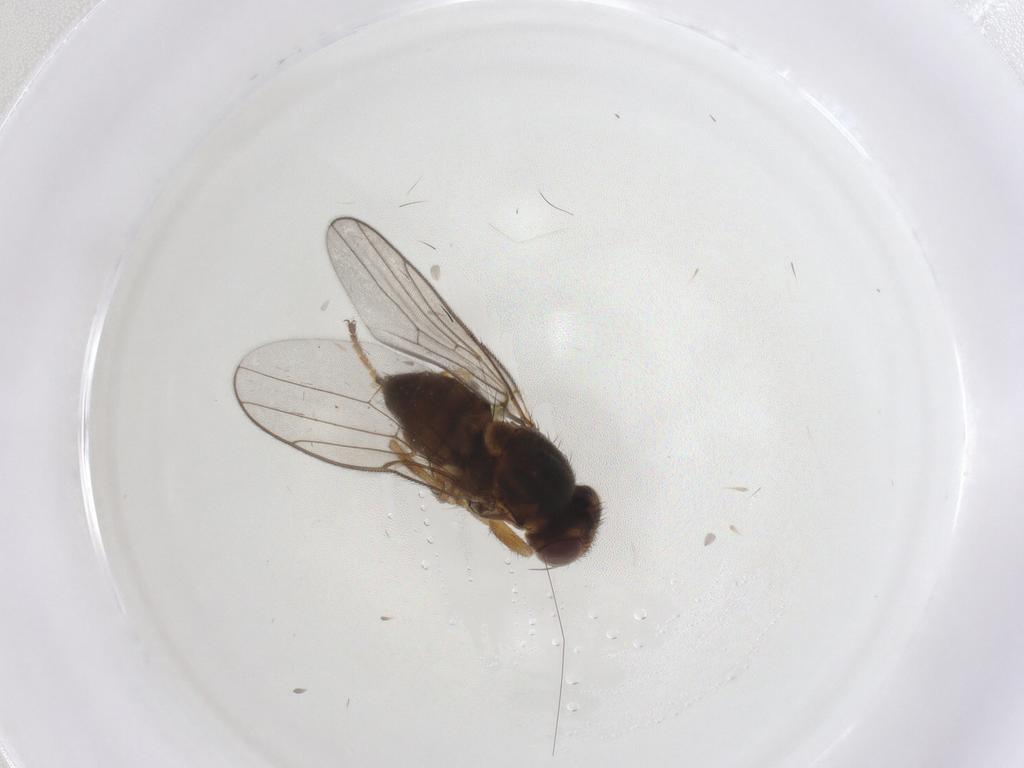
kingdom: Animalia
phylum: Arthropoda
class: Insecta
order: Diptera
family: Chloropidae
